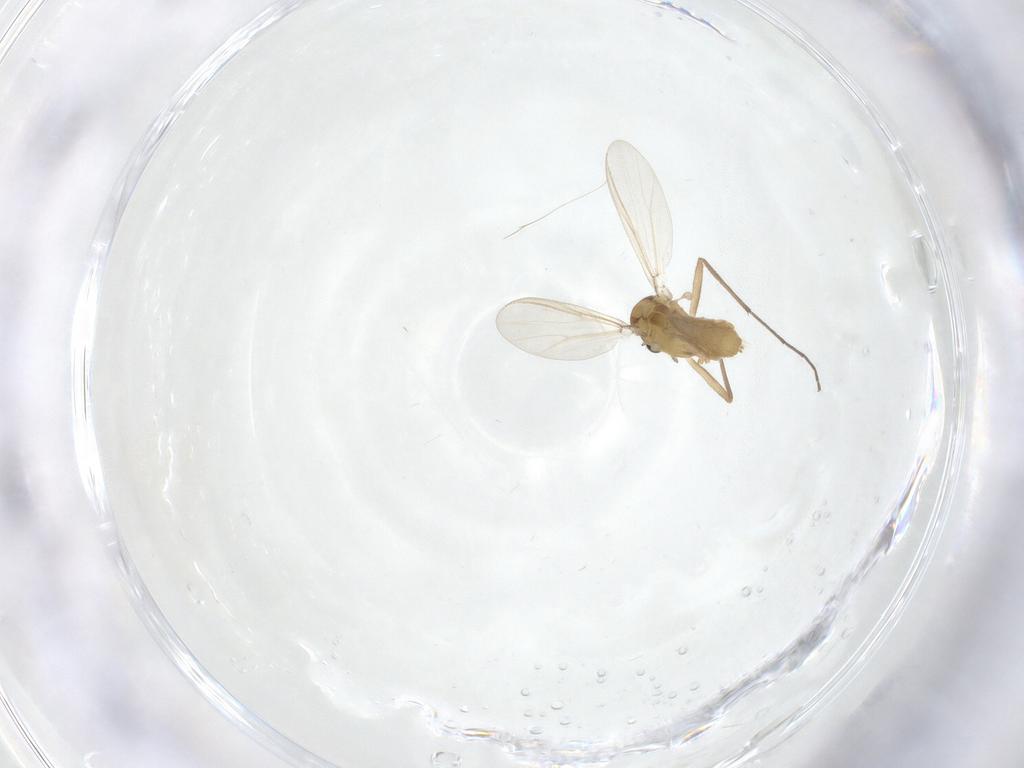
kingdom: Animalia
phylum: Arthropoda
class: Insecta
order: Diptera
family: Chironomidae
